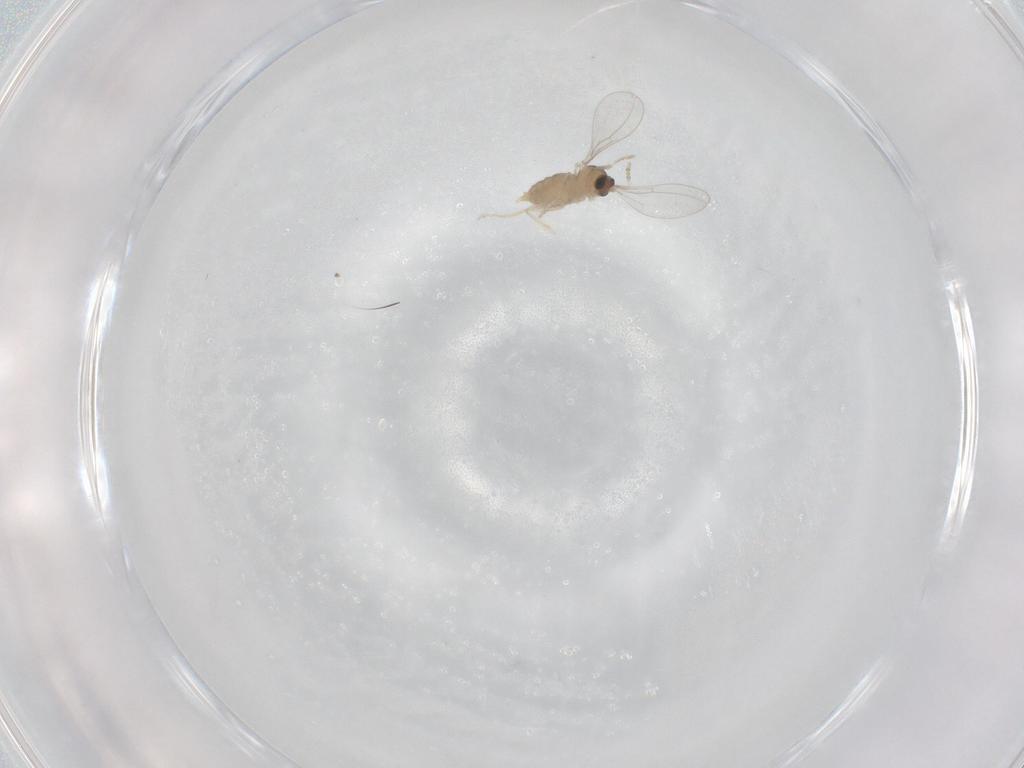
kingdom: Animalia
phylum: Arthropoda
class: Insecta
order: Diptera
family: Cecidomyiidae
